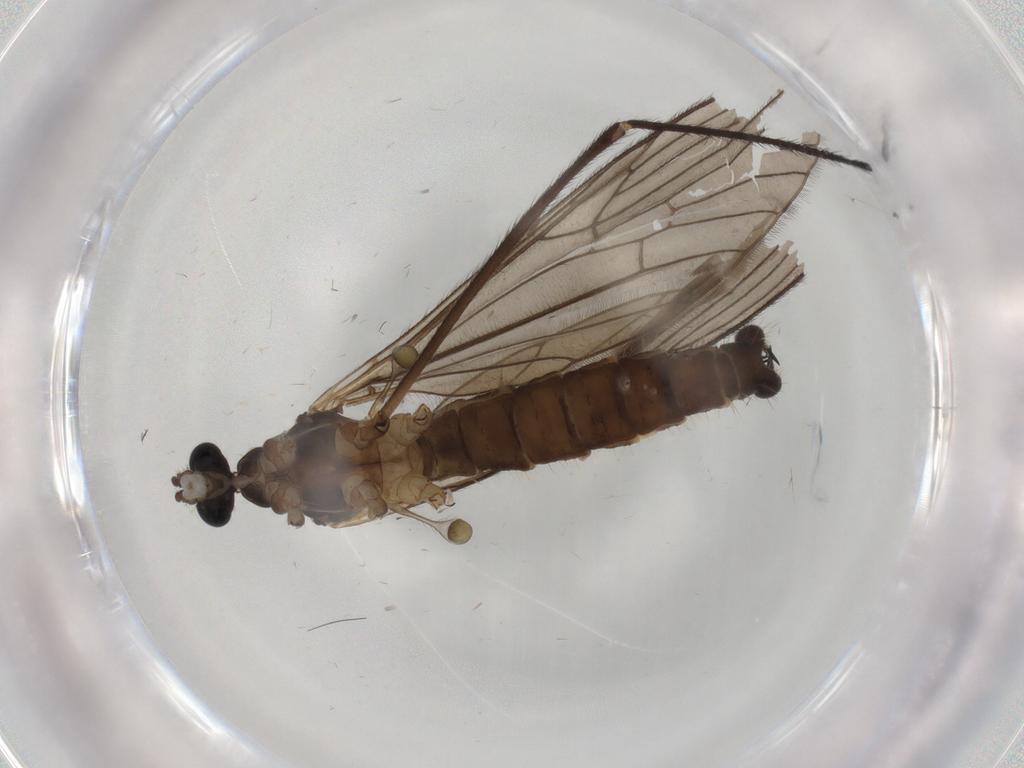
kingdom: Animalia
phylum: Arthropoda
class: Insecta
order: Diptera
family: Limoniidae
